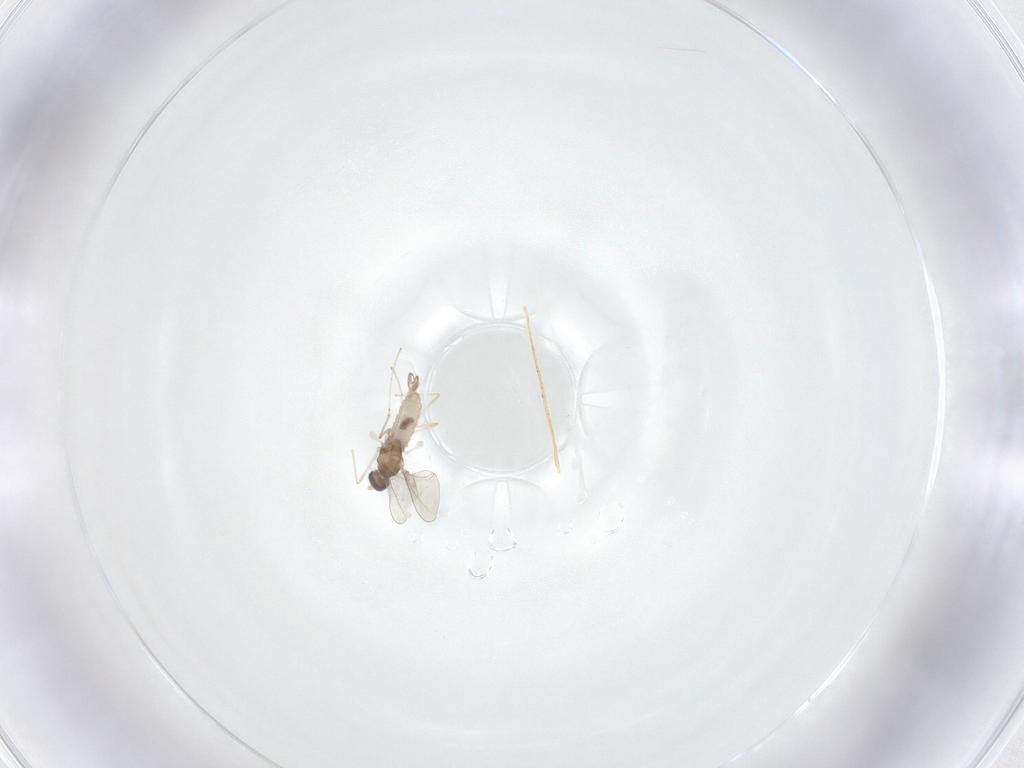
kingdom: Animalia
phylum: Arthropoda
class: Insecta
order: Diptera
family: Cecidomyiidae
